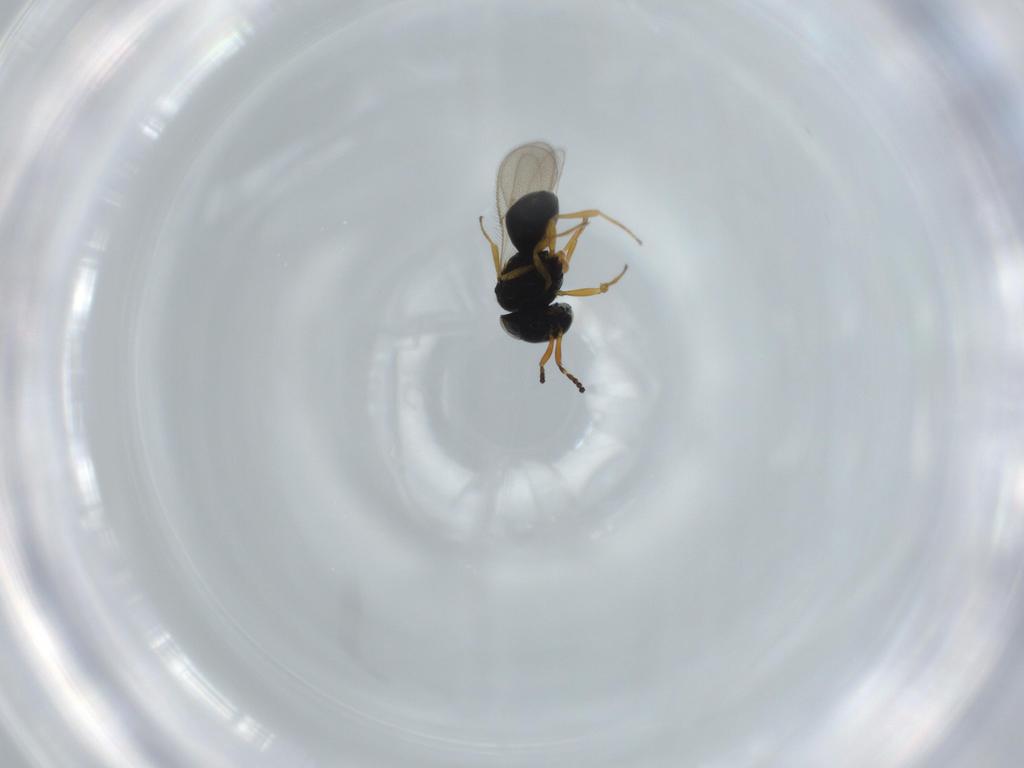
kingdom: Animalia
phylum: Arthropoda
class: Insecta
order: Hymenoptera
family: Scelionidae
